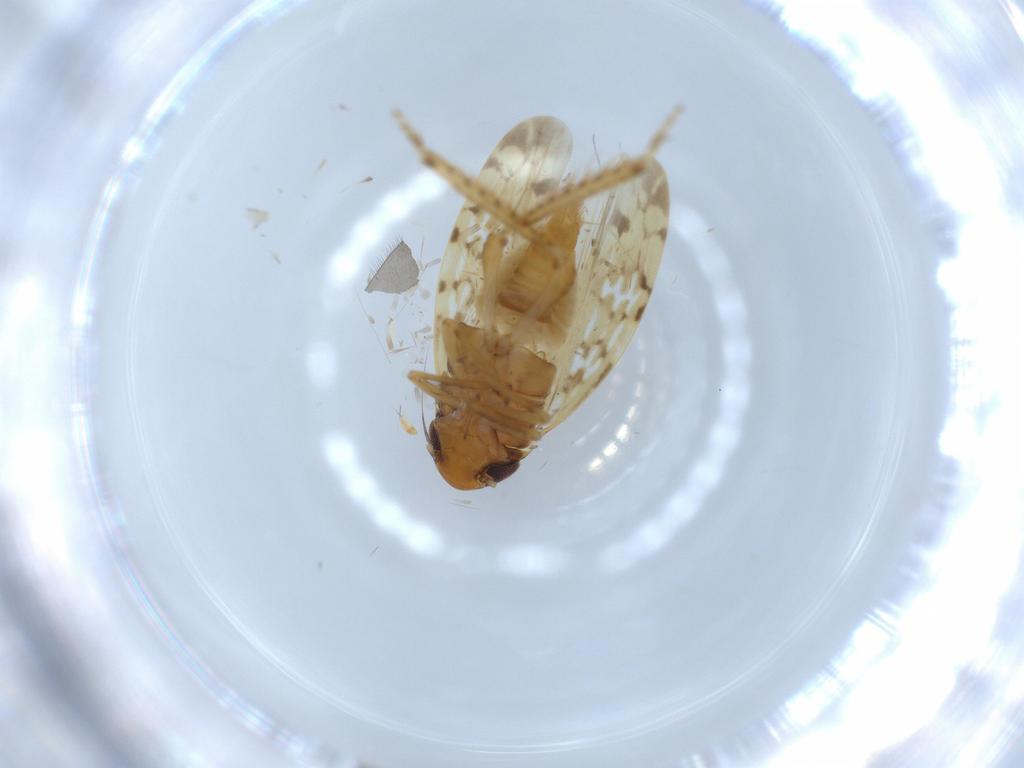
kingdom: Animalia
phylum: Arthropoda
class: Insecta
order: Hemiptera
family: Cicadellidae
